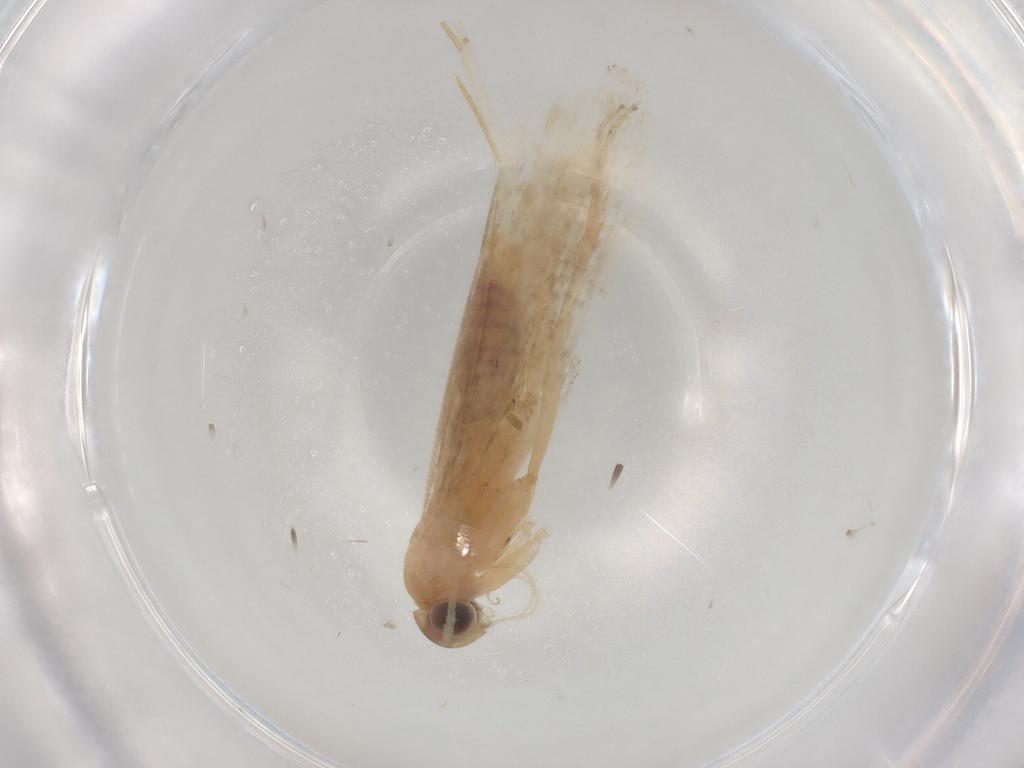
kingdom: Animalia
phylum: Arthropoda
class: Insecta
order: Lepidoptera
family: Gelechiidae
